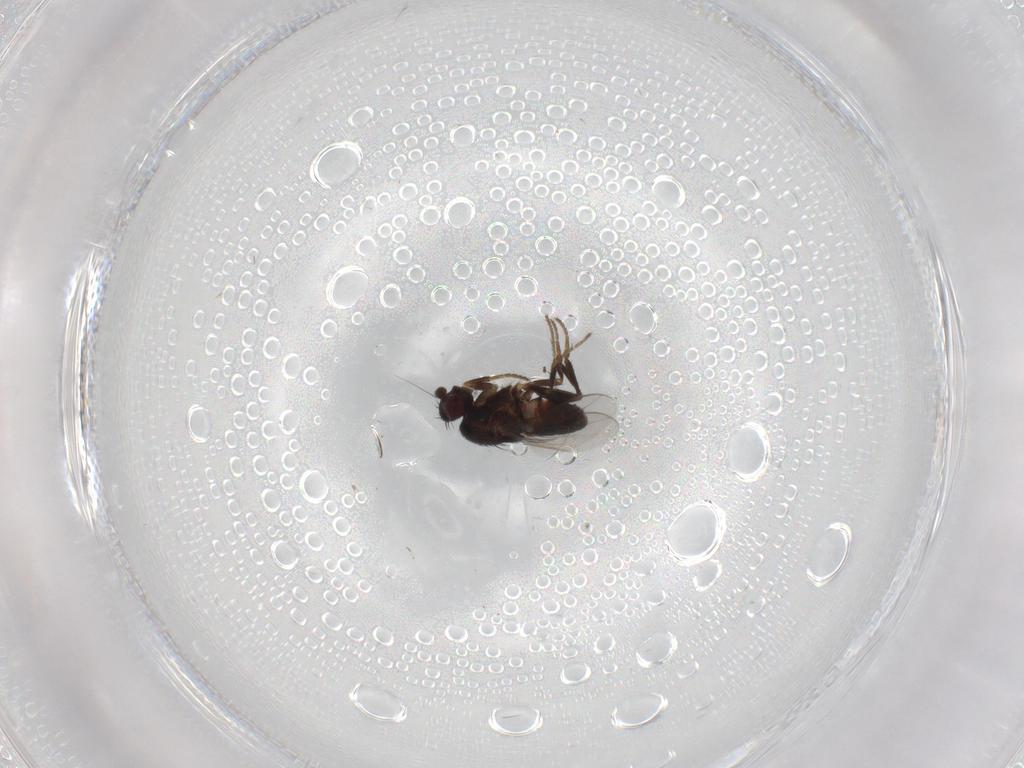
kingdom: Animalia
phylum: Arthropoda
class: Insecta
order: Diptera
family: Sphaeroceridae
